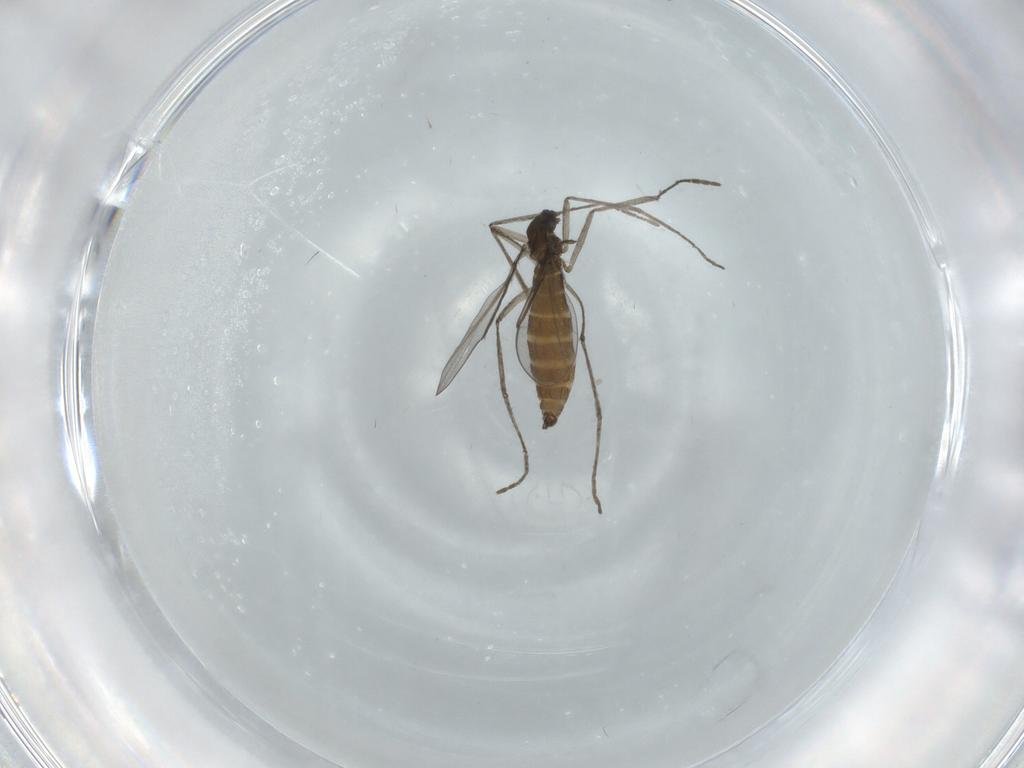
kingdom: Animalia
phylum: Arthropoda
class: Insecta
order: Diptera
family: Cecidomyiidae
